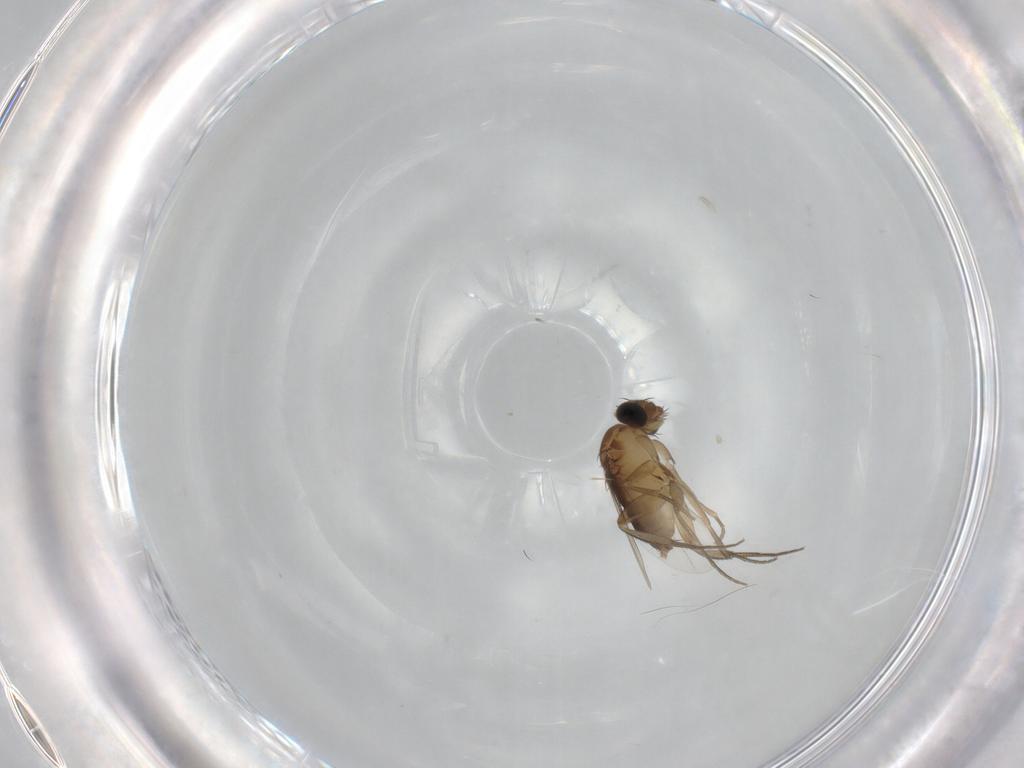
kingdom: Animalia
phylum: Arthropoda
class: Insecta
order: Diptera
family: Phoridae
